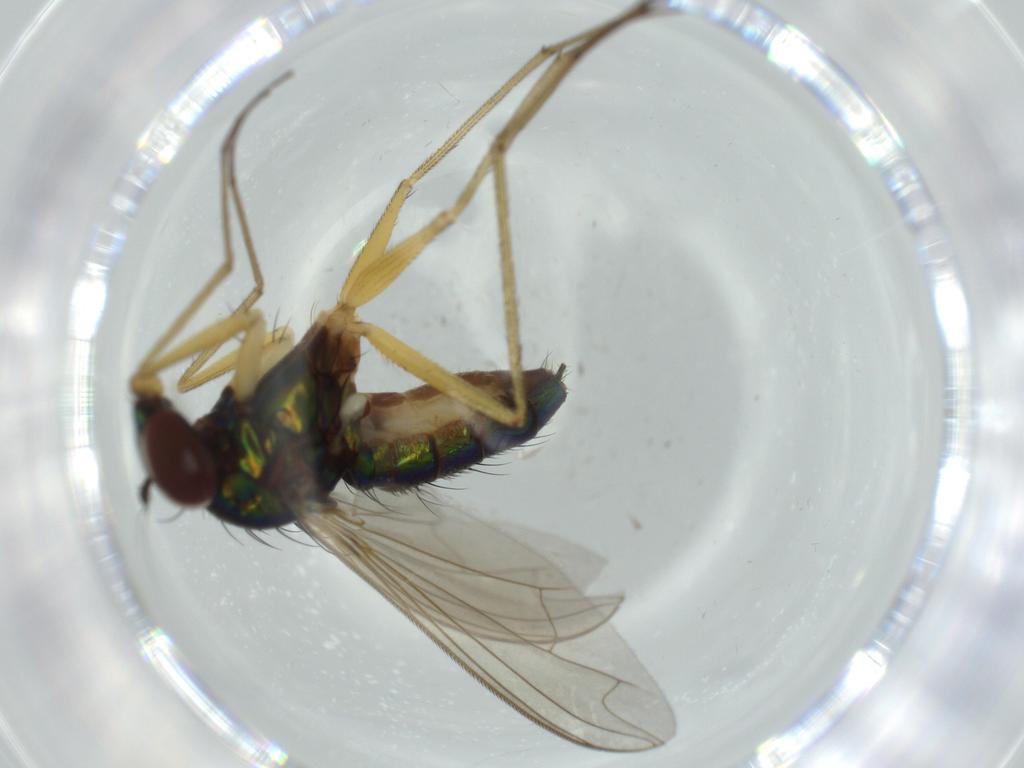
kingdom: Animalia
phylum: Arthropoda
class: Insecta
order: Diptera
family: Dolichopodidae
